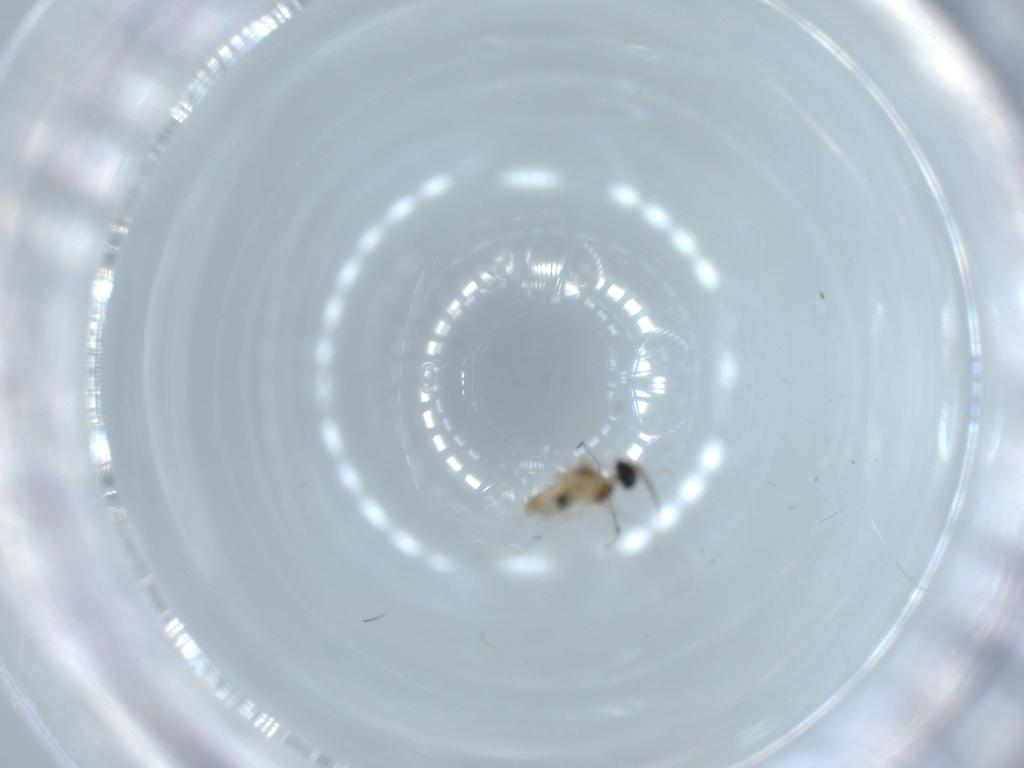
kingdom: Animalia
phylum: Arthropoda
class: Insecta
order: Diptera
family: Cecidomyiidae
